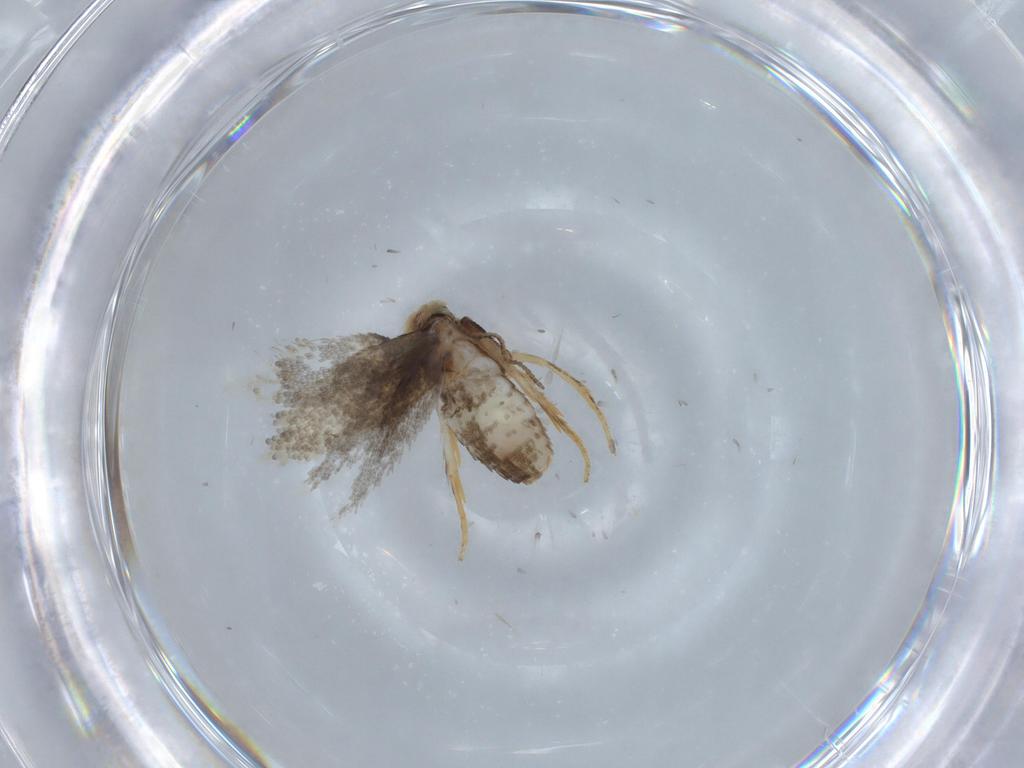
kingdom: Animalia
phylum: Arthropoda
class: Insecta
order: Lepidoptera
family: Nepticulidae
